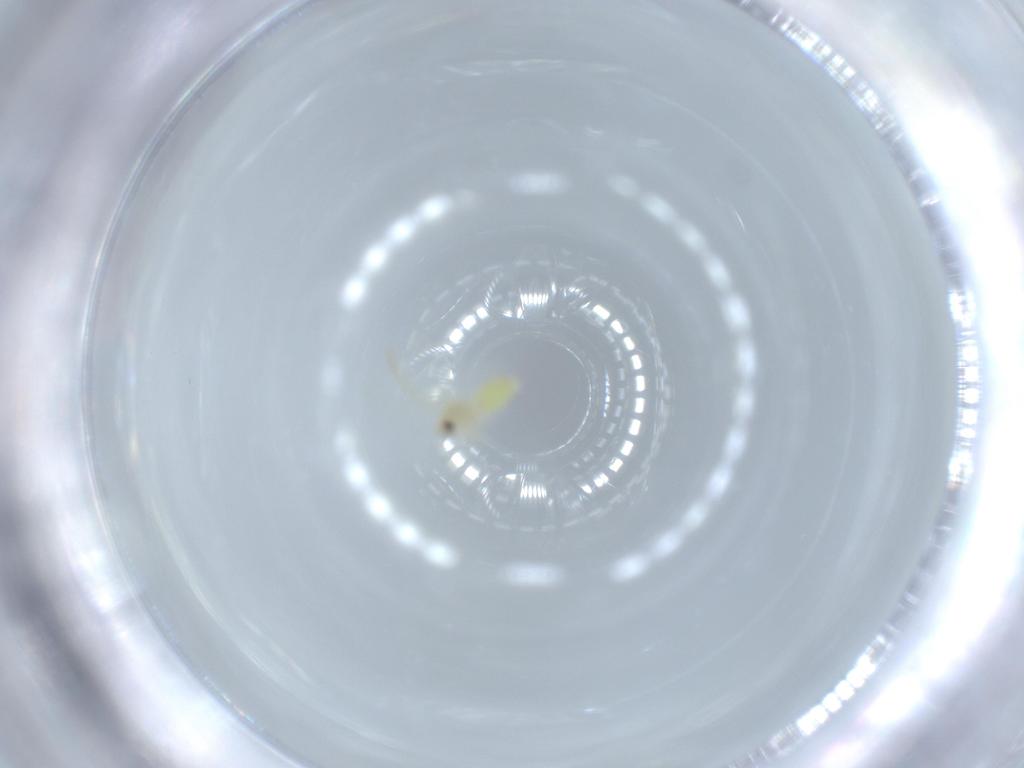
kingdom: Animalia
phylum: Arthropoda
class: Insecta
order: Hemiptera
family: Aleyrodidae
